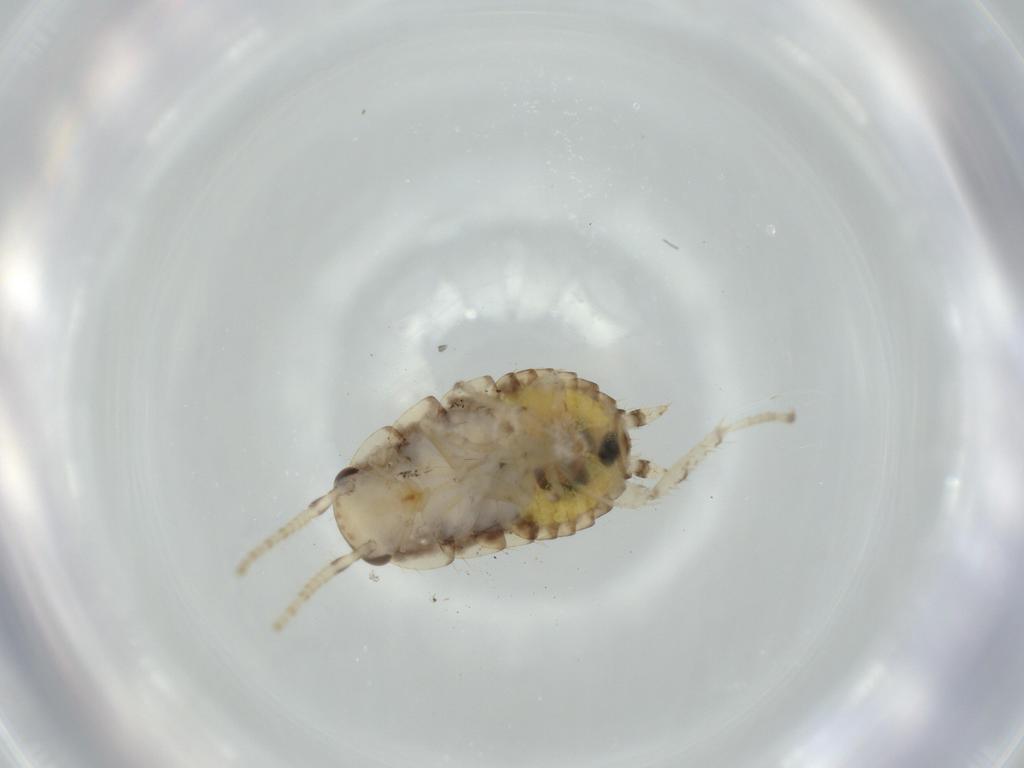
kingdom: Animalia
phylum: Arthropoda
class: Insecta
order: Blattodea
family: Ectobiidae
